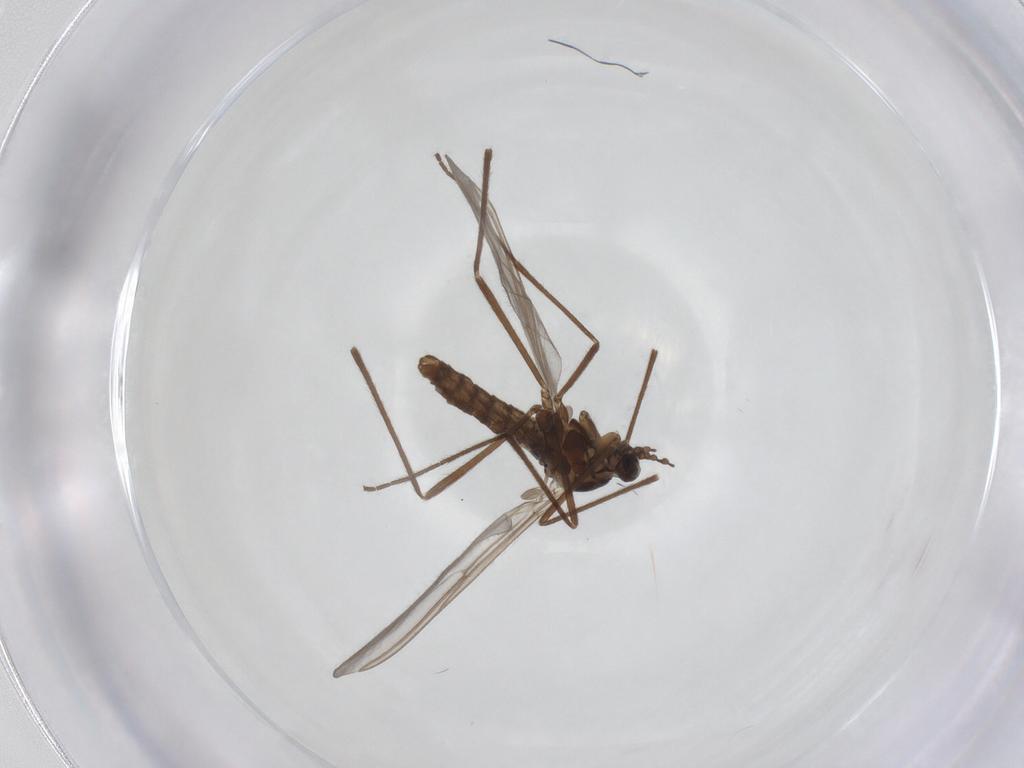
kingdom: Animalia
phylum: Arthropoda
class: Insecta
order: Diptera
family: Cecidomyiidae
